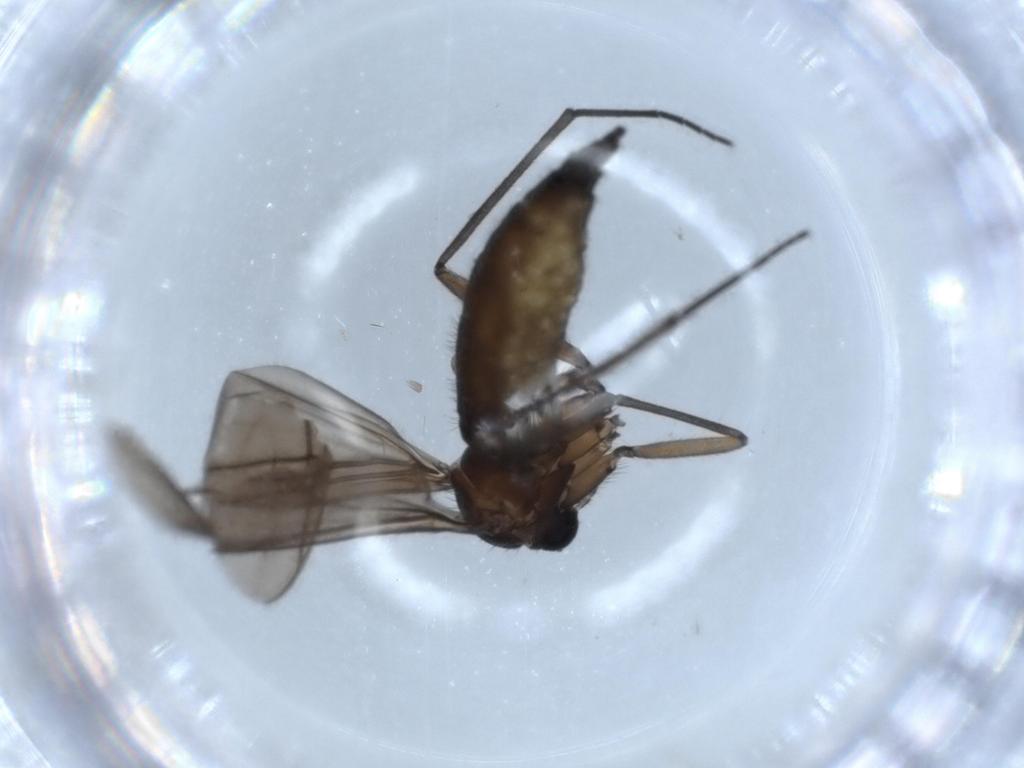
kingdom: Animalia
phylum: Arthropoda
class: Insecta
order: Diptera
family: Sciaridae
